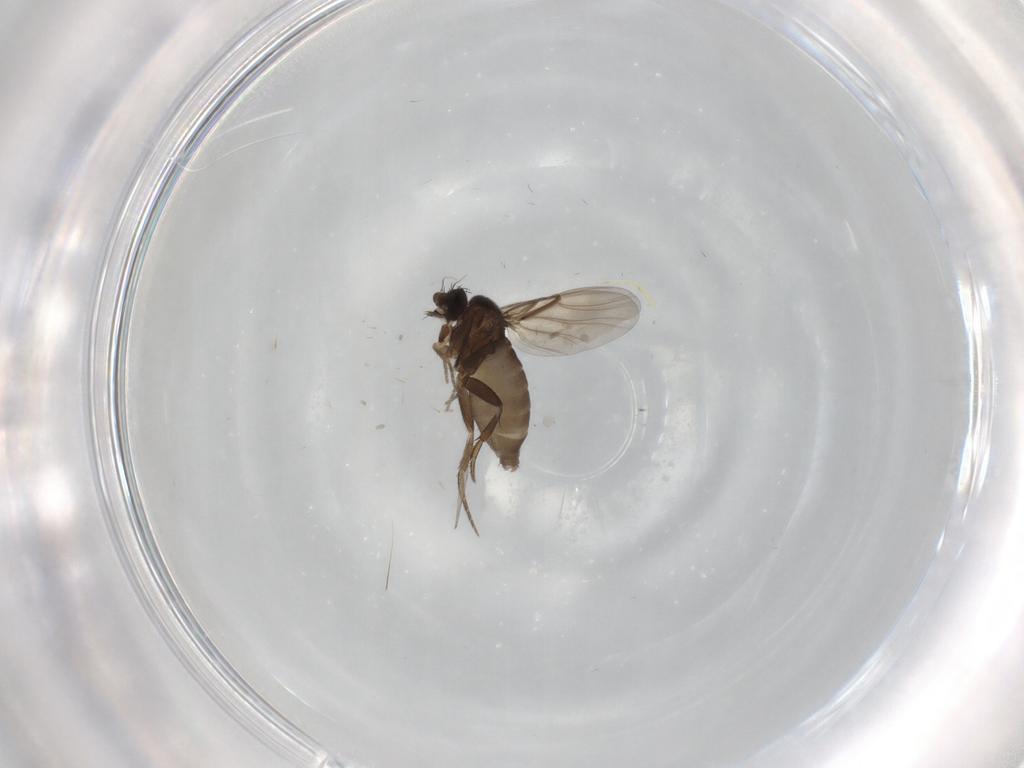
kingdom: Animalia
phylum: Arthropoda
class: Insecta
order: Diptera
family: Phoridae
